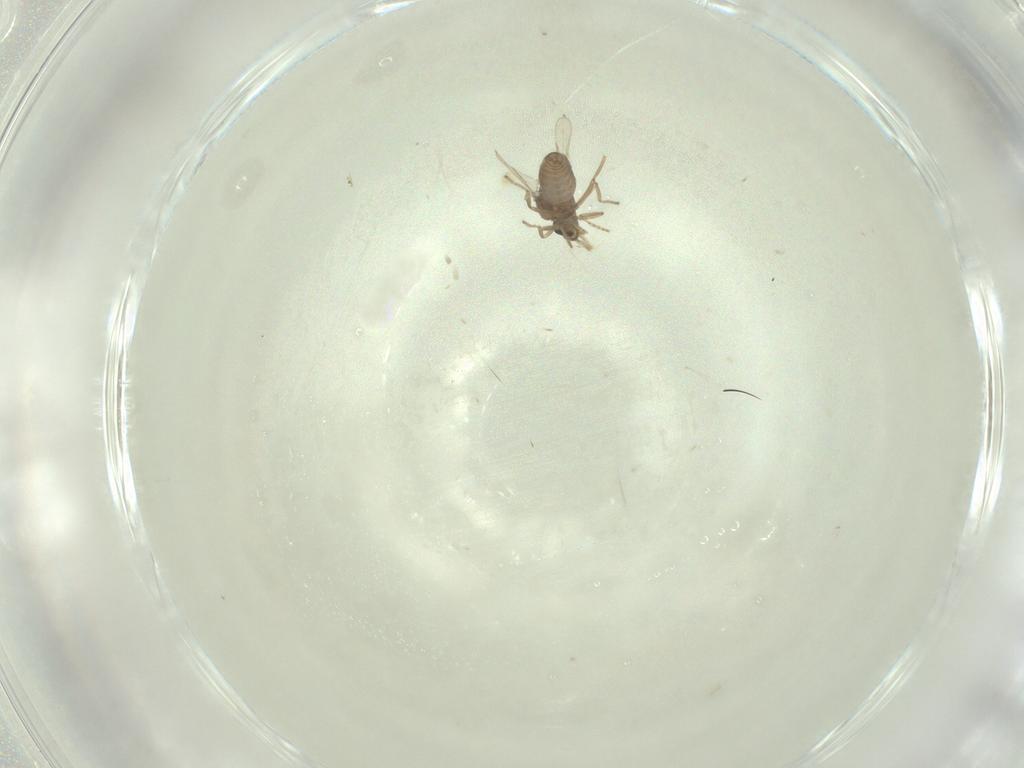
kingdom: Animalia
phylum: Arthropoda
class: Insecta
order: Diptera
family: Ceratopogonidae
